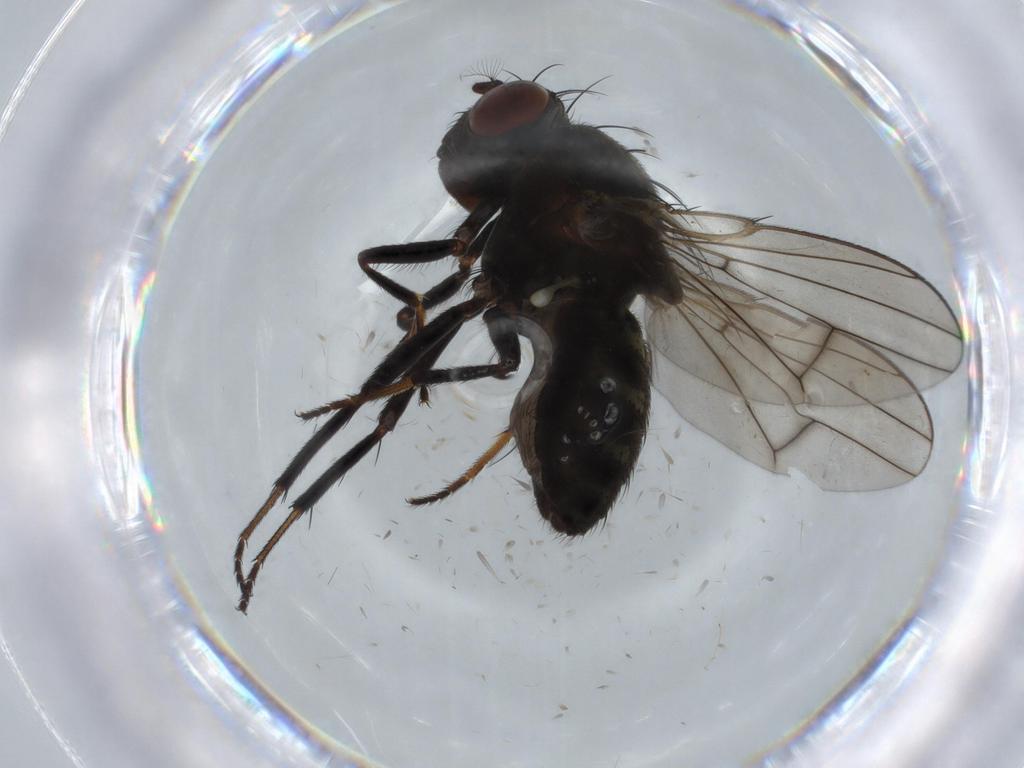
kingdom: Animalia
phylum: Arthropoda
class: Insecta
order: Diptera
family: Ephydridae
